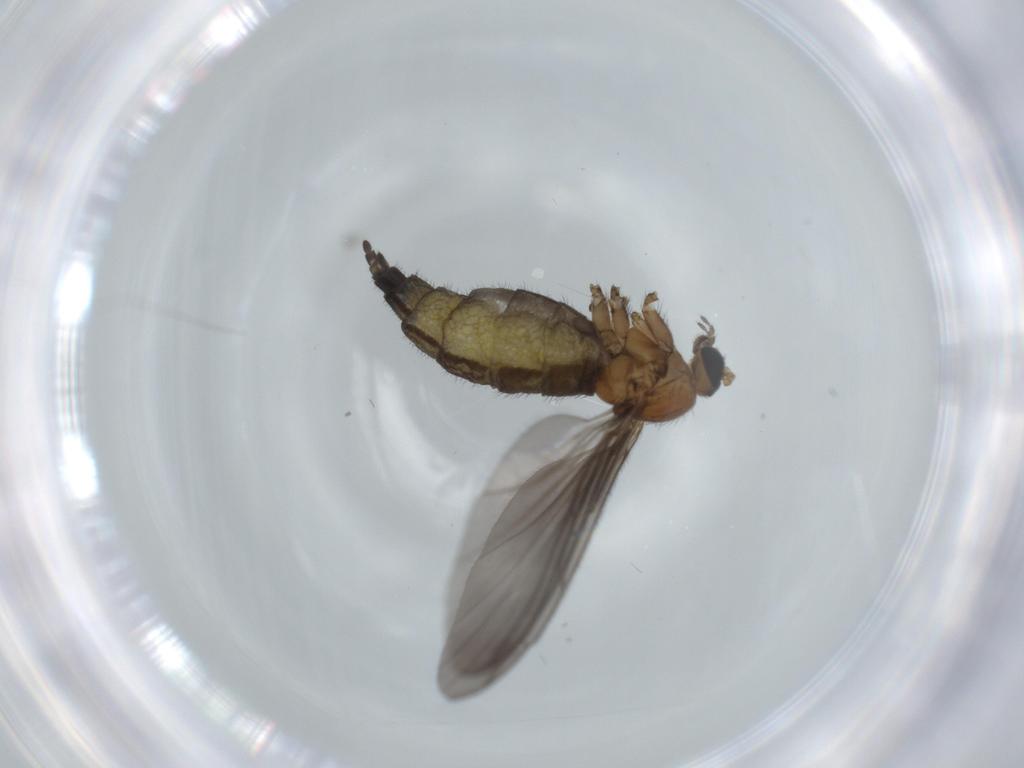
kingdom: Animalia
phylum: Arthropoda
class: Insecta
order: Diptera
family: Sciaridae
